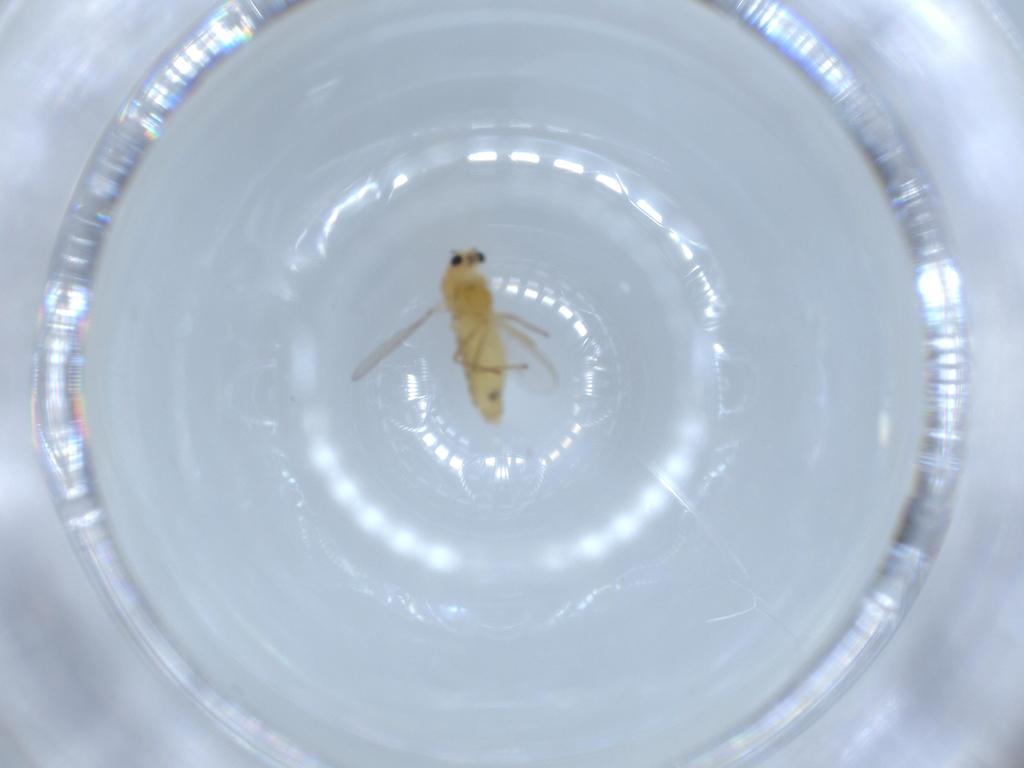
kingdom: Animalia
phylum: Arthropoda
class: Insecta
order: Diptera
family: Chironomidae
